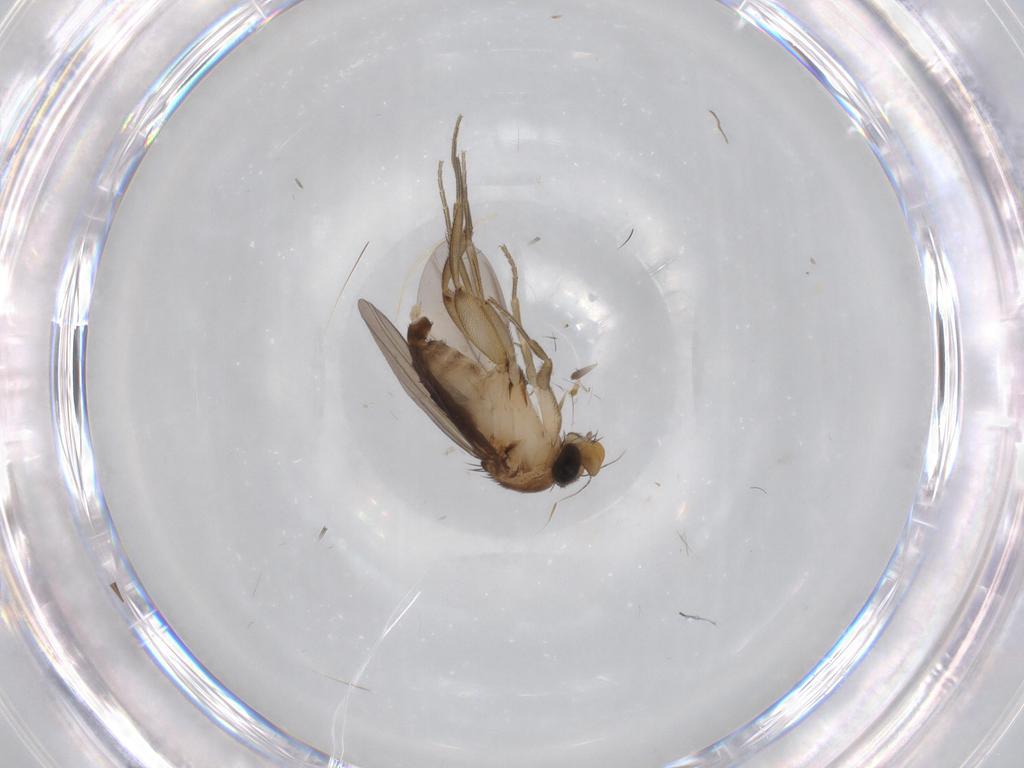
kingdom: Animalia
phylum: Arthropoda
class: Insecta
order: Diptera
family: Phoridae
